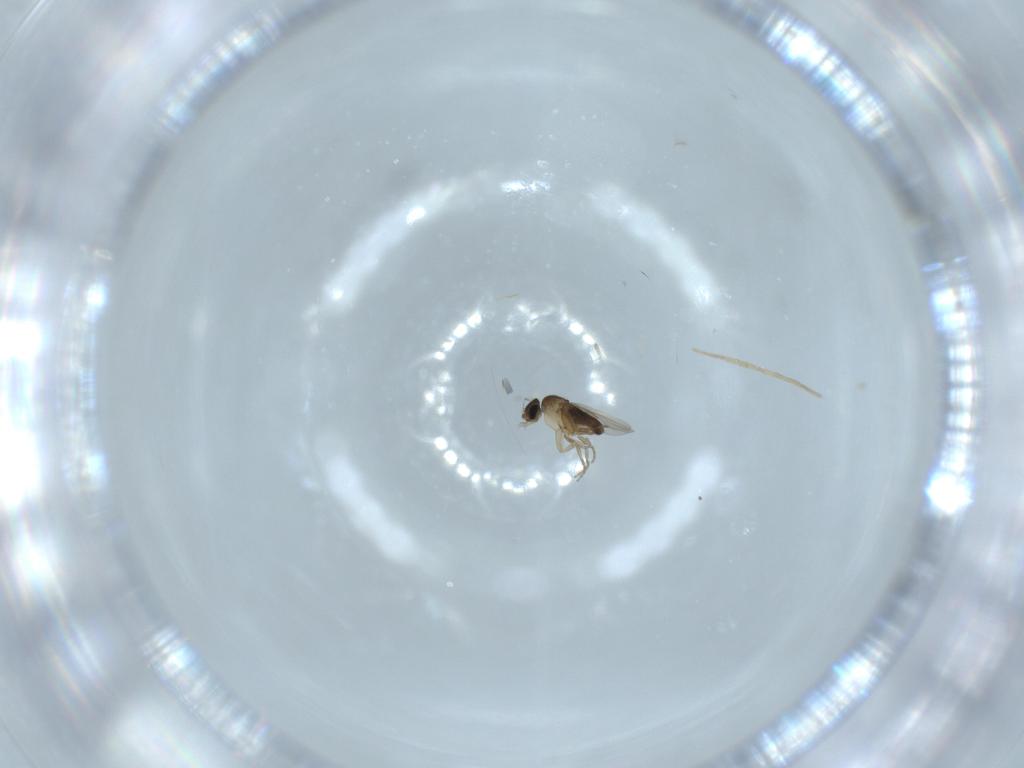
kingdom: Animalia
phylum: Arthropoda
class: Insecta
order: Diptera
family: Phoridae
